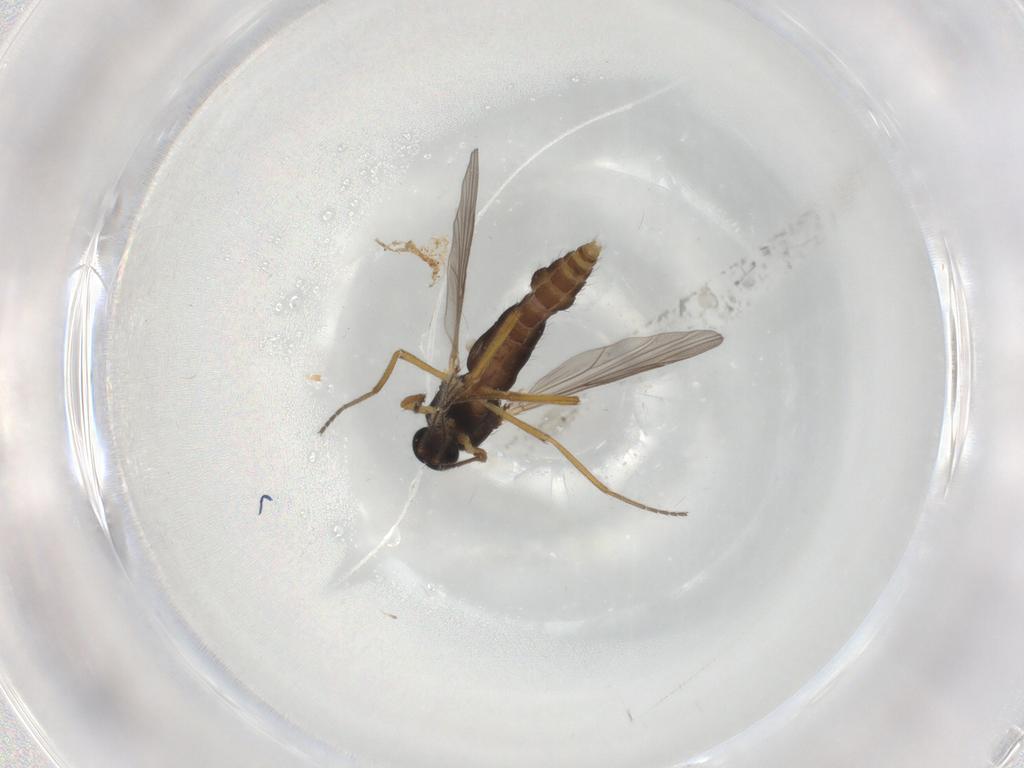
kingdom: Animalia
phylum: Arthropoda
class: Insecta
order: Diptera
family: Ceratopogonidae
